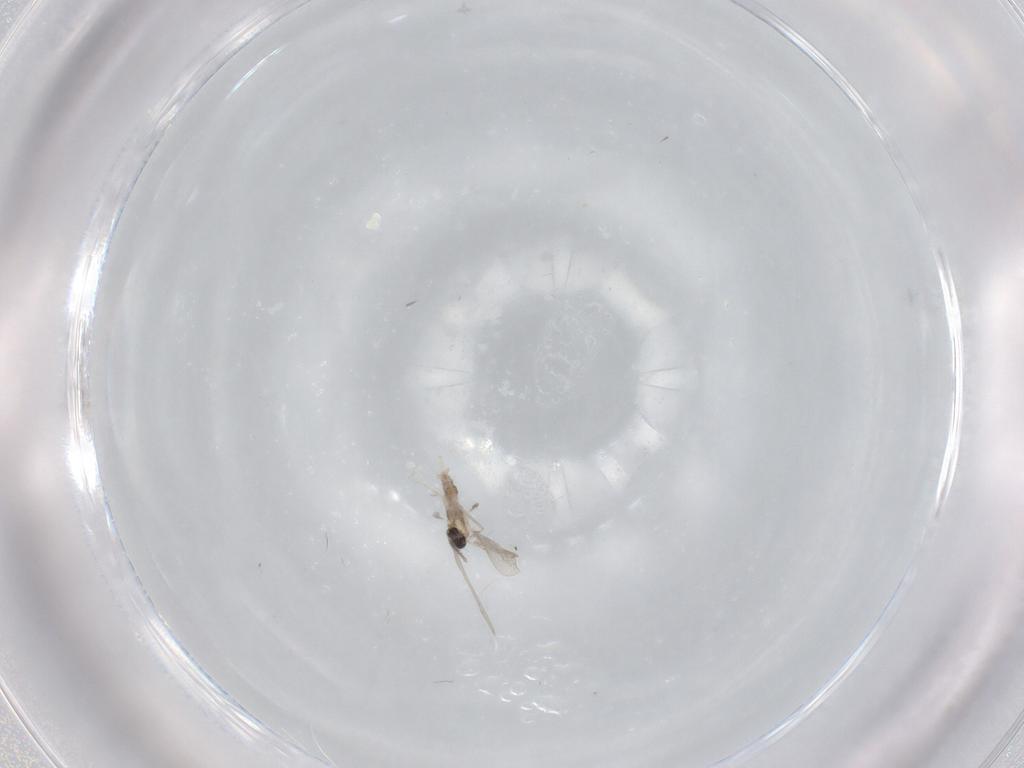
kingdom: Animalia
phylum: Arthropoda
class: Insecta
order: Diptera
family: Cecidomyiidae
